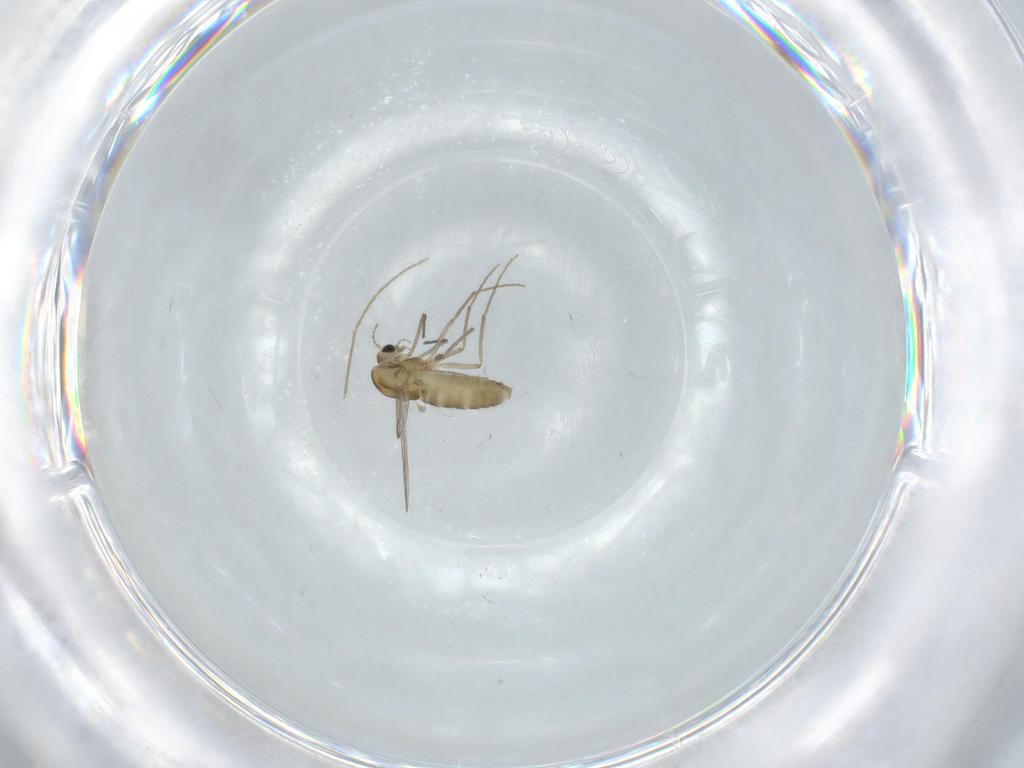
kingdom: Animalia
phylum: Arthropoda
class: Insecta
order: Diptera
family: Chironomidae
